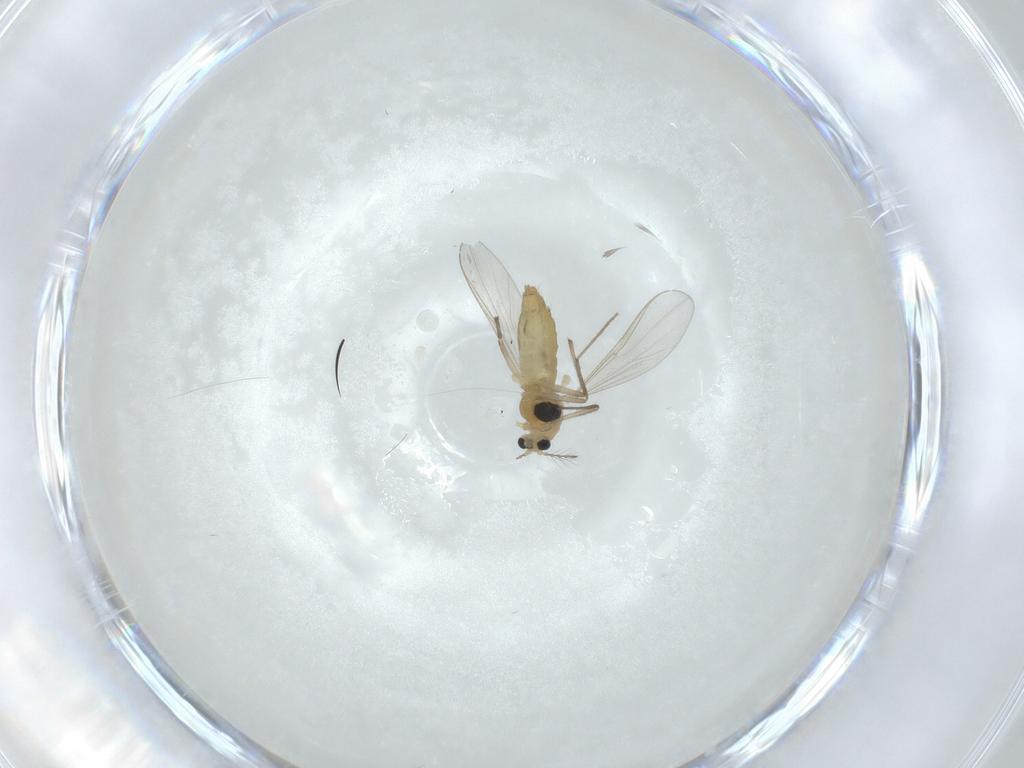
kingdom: Animalia
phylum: Arthropoda
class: Insecta
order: Diptera
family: Chironomidae
